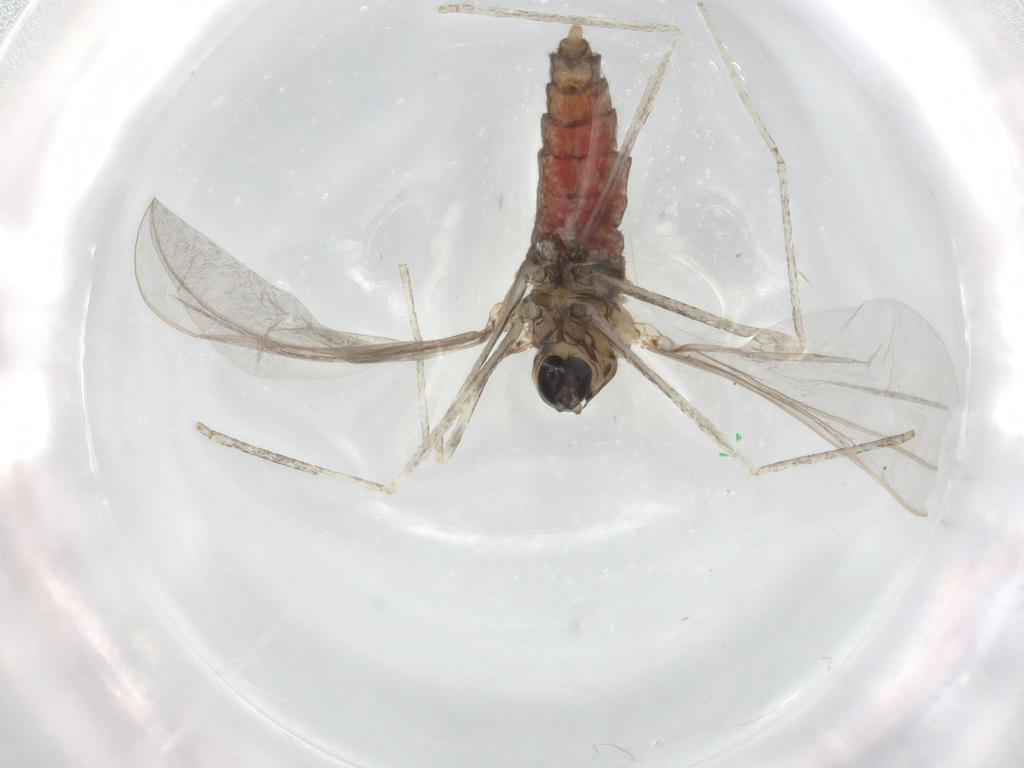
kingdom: Animalia
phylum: Arthropoda
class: Insecta
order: Diptera
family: Cecidomyiidae
